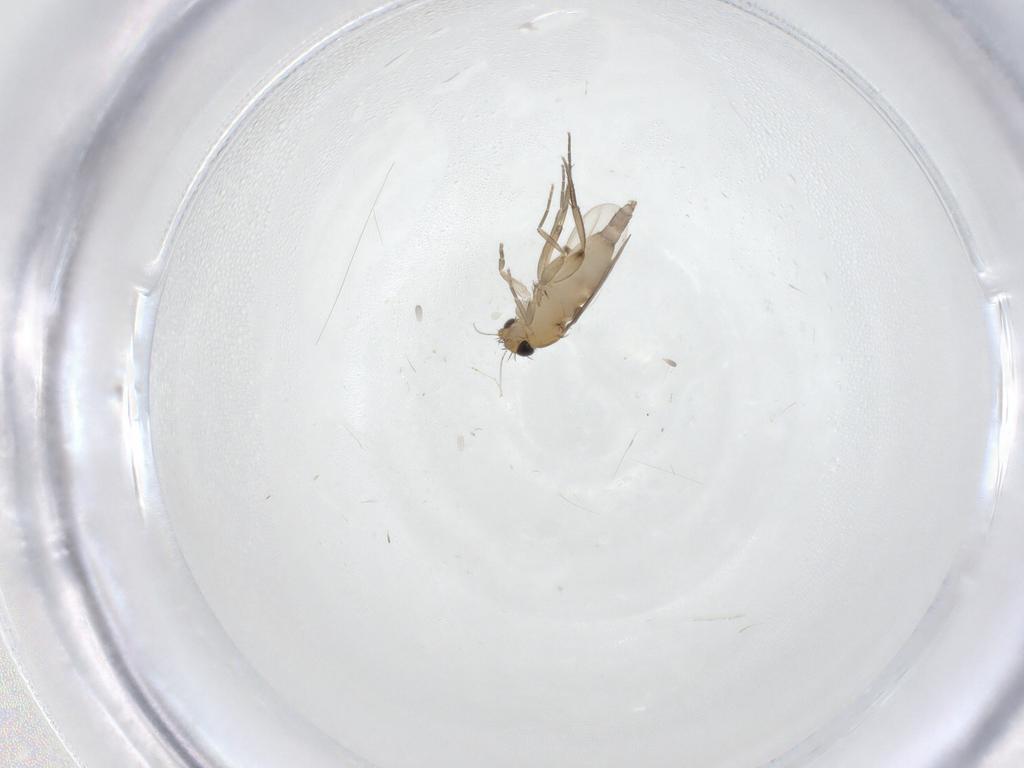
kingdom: Animalia
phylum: Arthropoda
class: Insecta
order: Diptera
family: Phoridae
